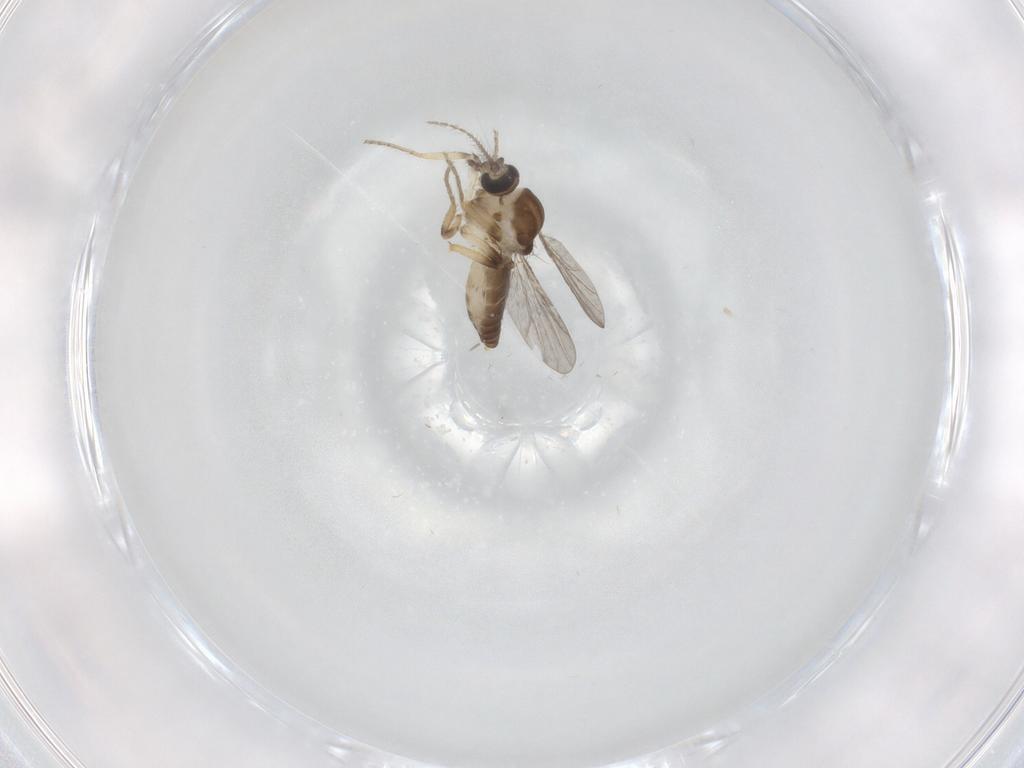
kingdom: Animalia
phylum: Arthropoda
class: Insecta
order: Diptera
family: Ceratopogonidae
